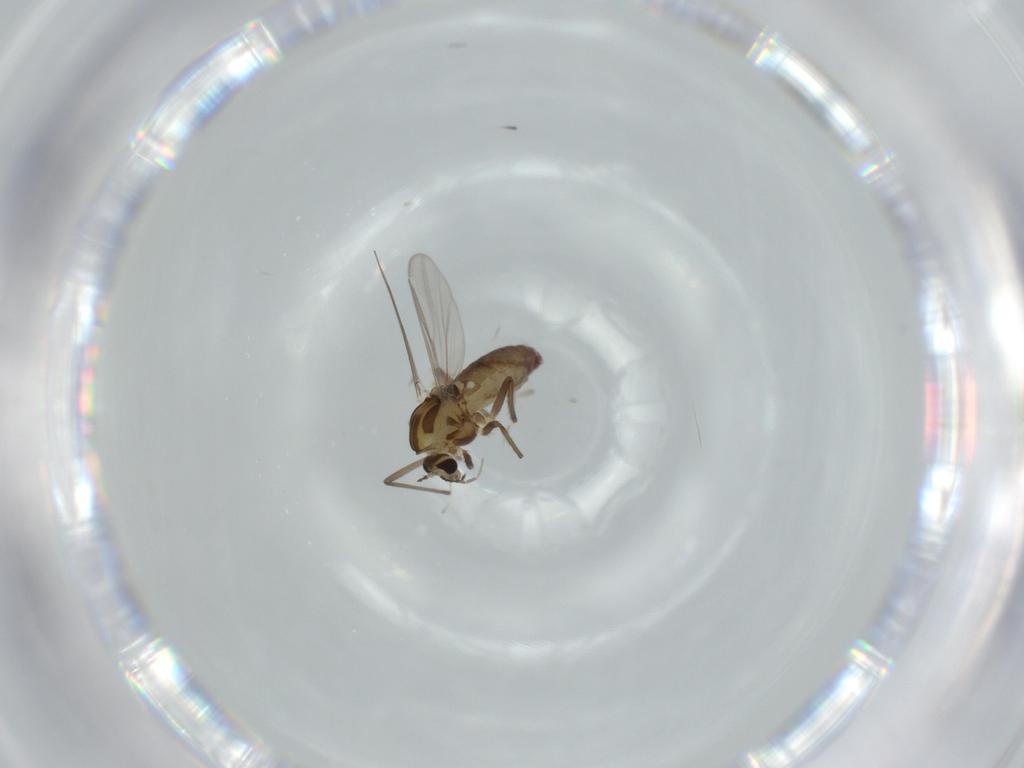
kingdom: Animalia
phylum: Arthropoda
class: Insecta
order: Diptera
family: Chironomidae
